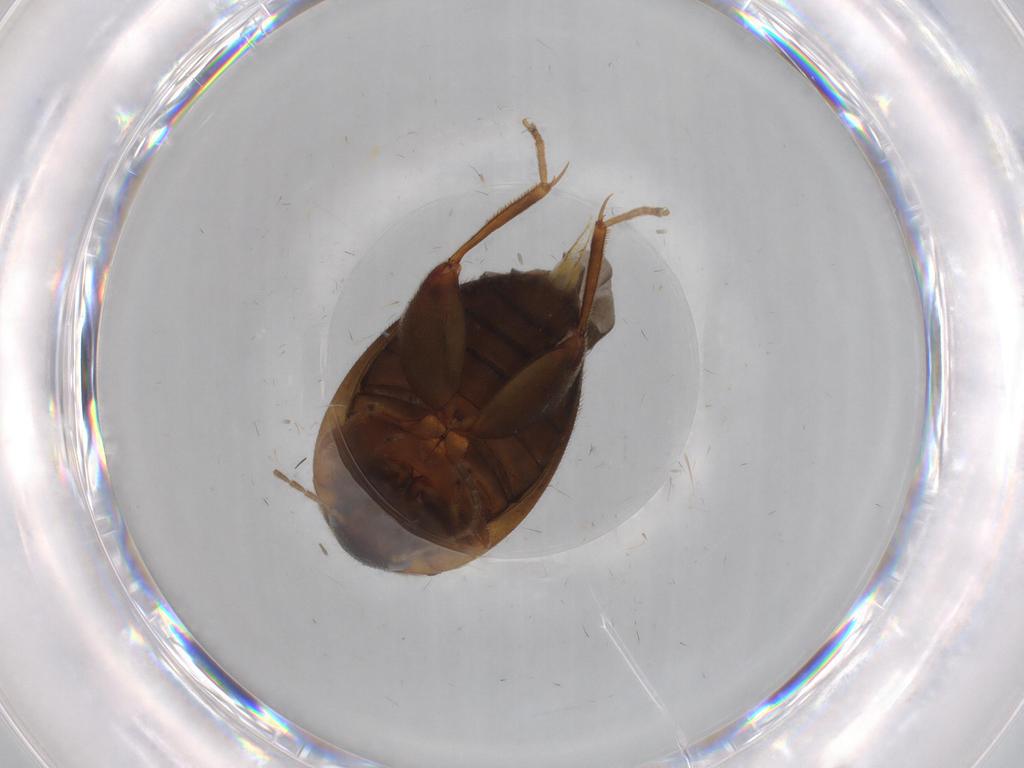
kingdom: Animalia
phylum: Arthropoda
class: Insecta
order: Coleoptera
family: Scirtidae
